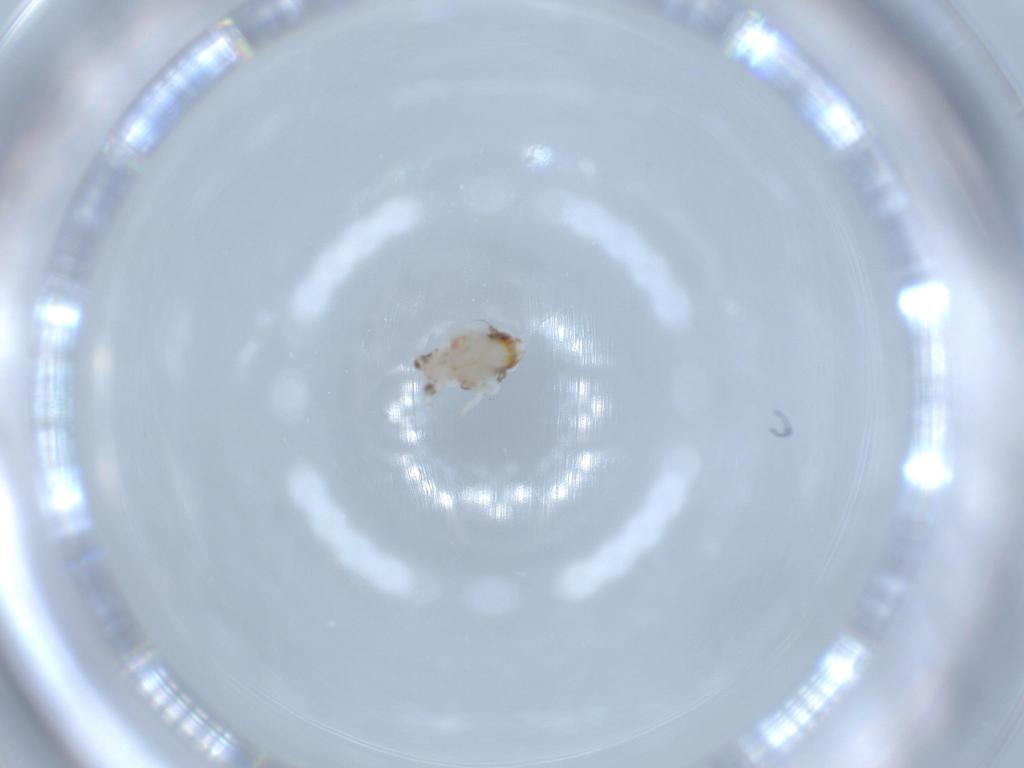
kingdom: Animalia
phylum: Arthropoda
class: Insecta
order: Hemiptera
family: Nogodinidae
